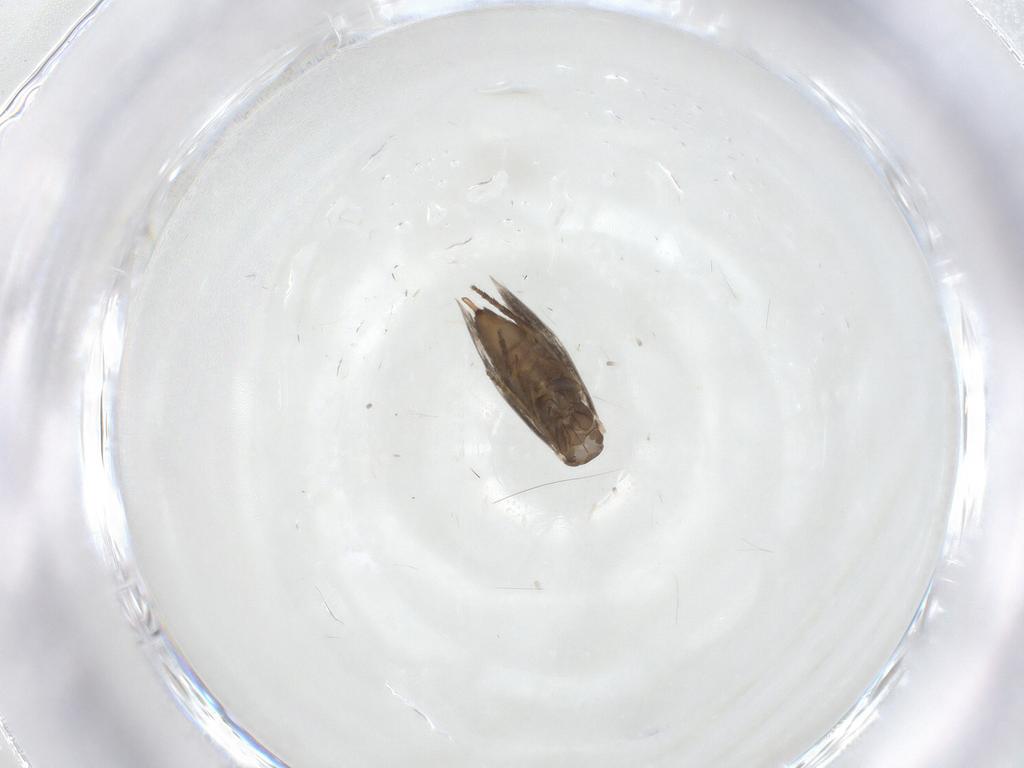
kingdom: Animalia
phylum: Arthropoda
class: Insecta
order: Lepidoptera
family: Heliozelidae
